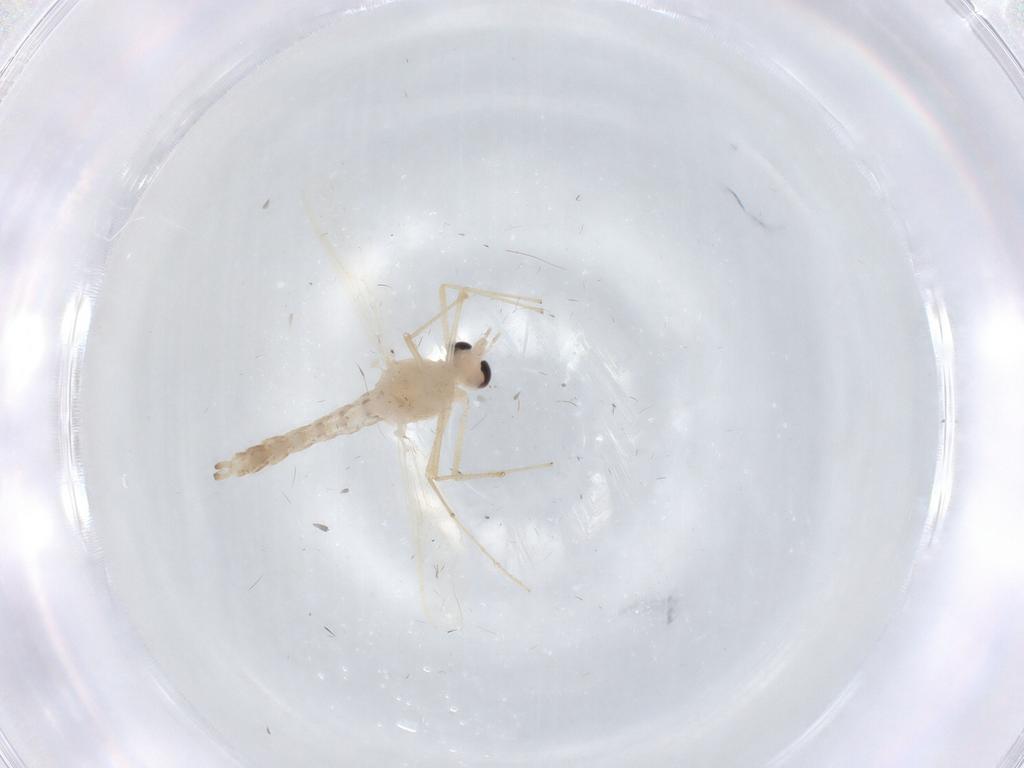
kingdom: Animalia
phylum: Arthropoda
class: Insecta
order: Diptera
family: Chironomidae
